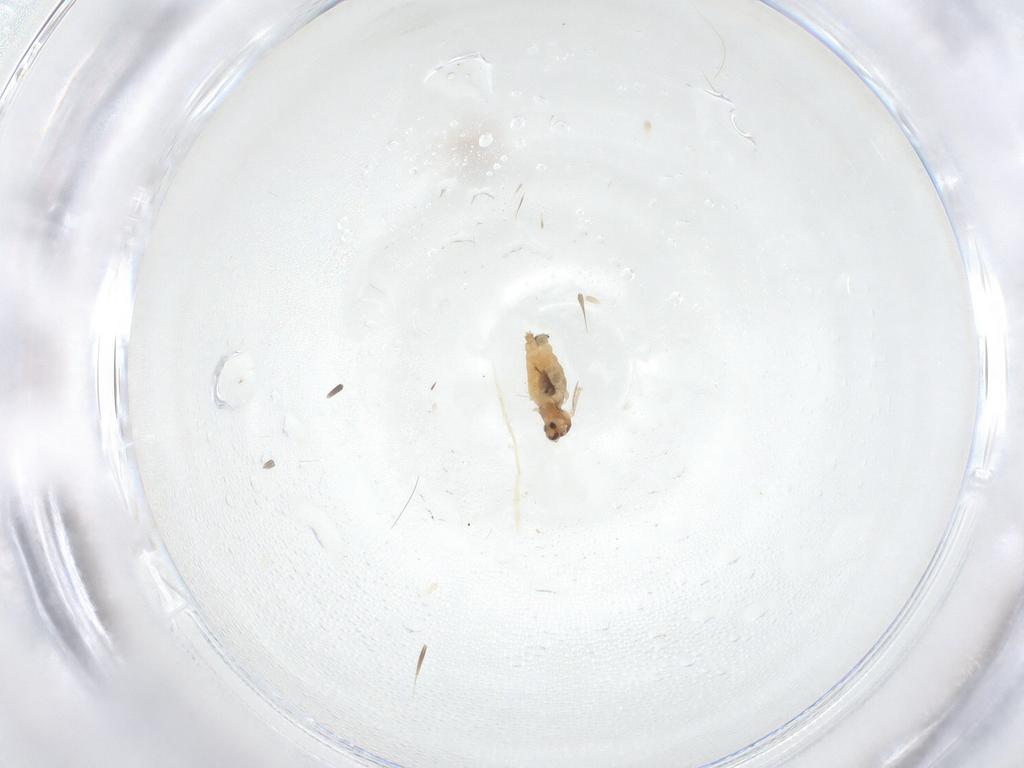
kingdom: Animalia
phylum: Arthropoda
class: Insecta
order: Diptera
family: Cecidomyiidae
